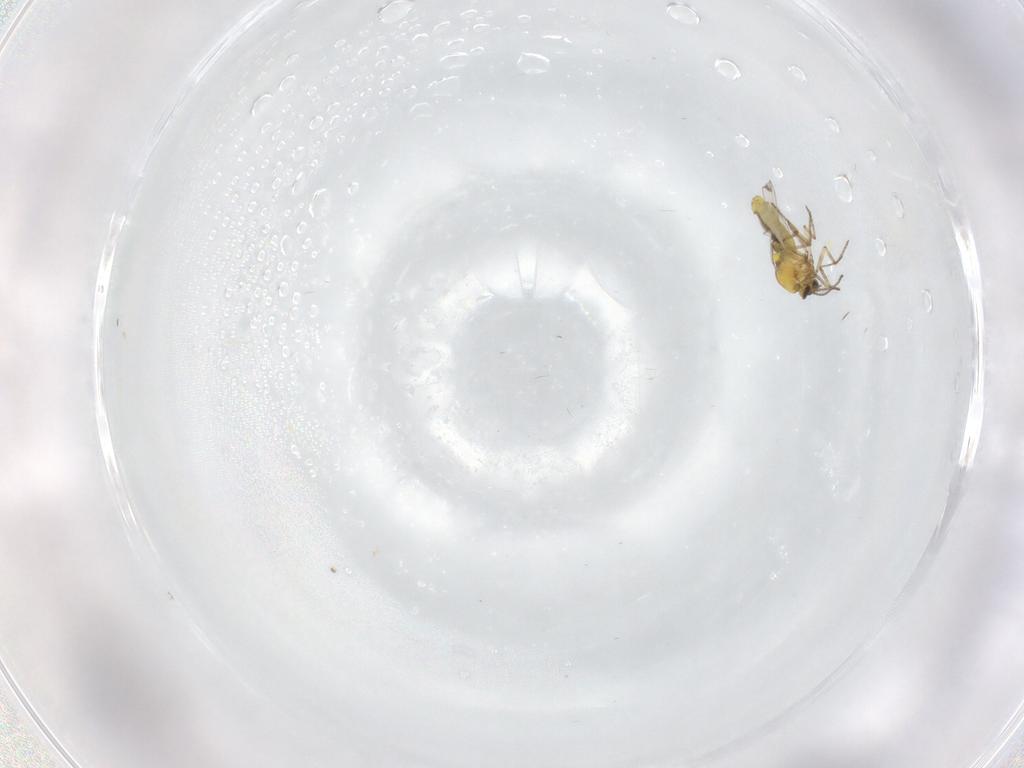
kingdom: Animalia
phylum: Arthropoda
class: Insecta
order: Diptera
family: Ceratopogonidae
